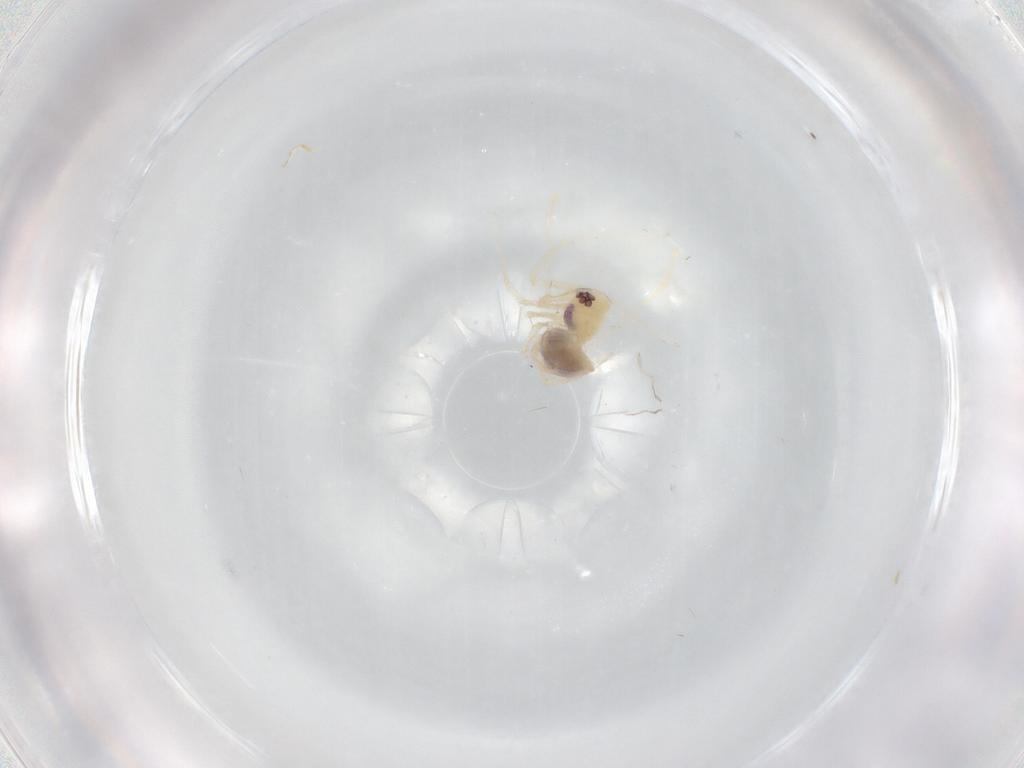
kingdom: Animalia
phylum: Arthropoda
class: Arachnida
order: Araneae
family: Pholcidae
